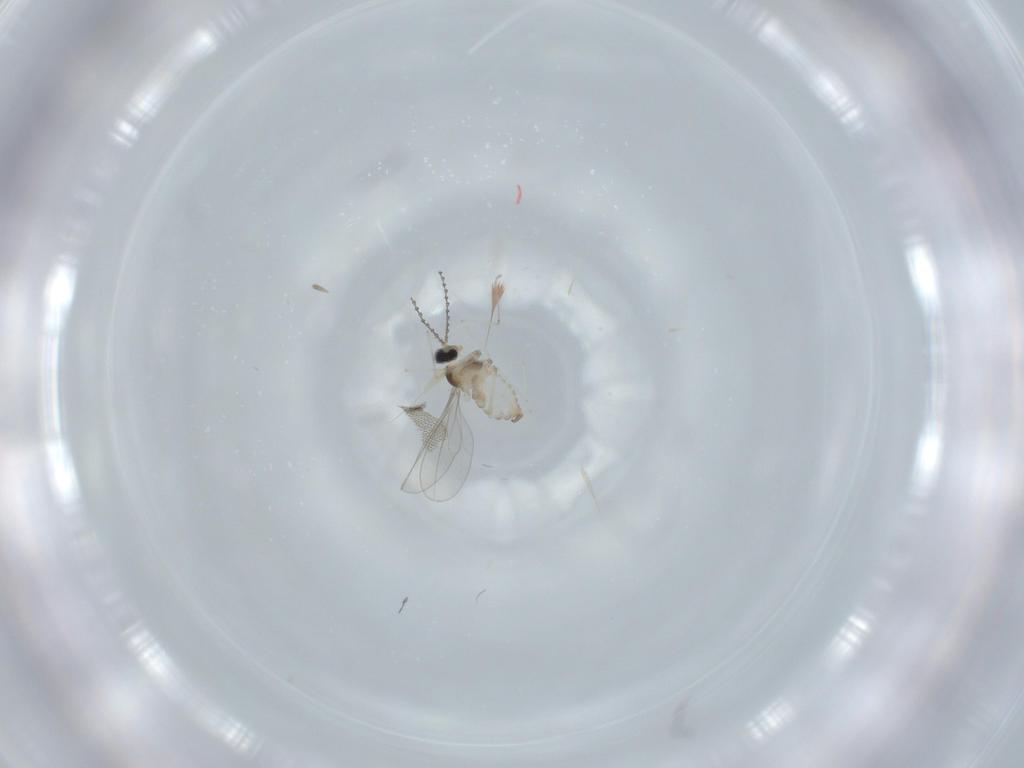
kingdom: Animalia
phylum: Arthropoda
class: Insecta
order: Diptera
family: Cecidomyiidae
